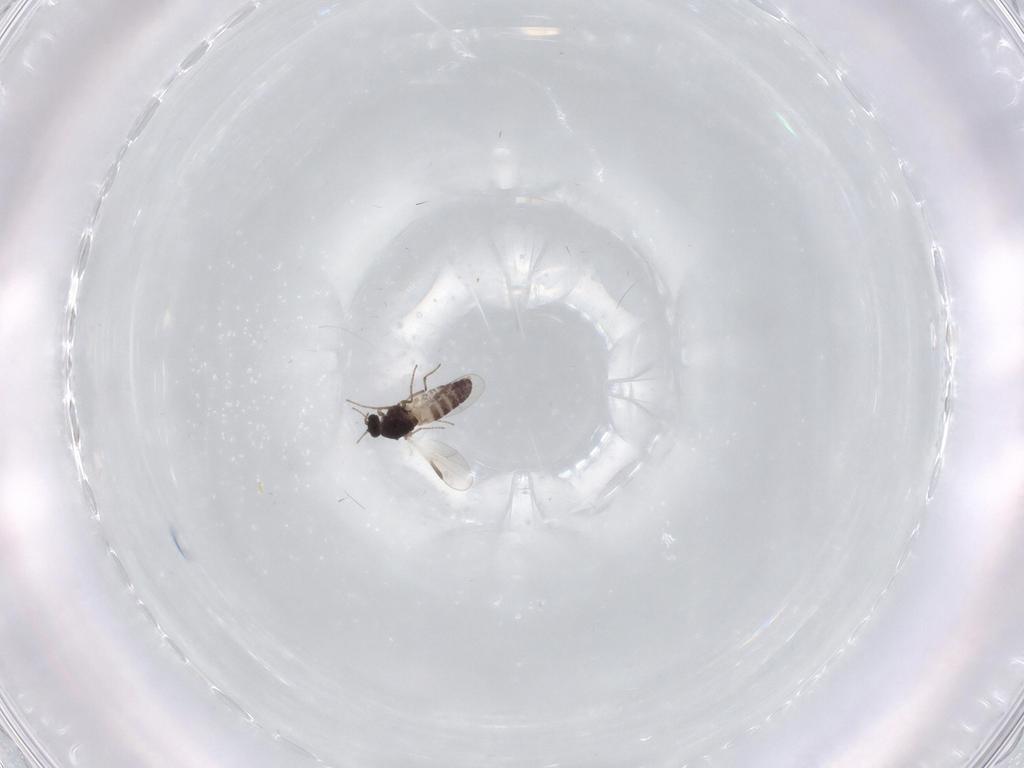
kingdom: Animalia
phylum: Arthropoda
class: Insecta
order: Diptera
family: Chironomidae
